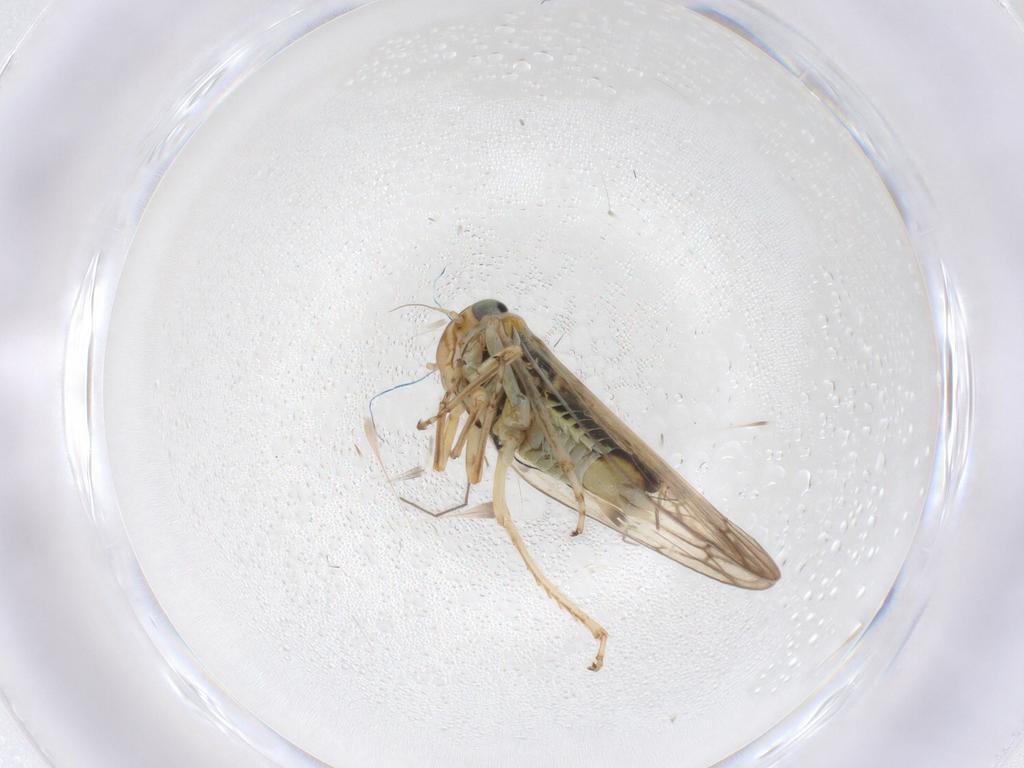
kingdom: Animalia
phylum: Arthropoda
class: Insecta
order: Hemiptera
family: Cicadellidae
